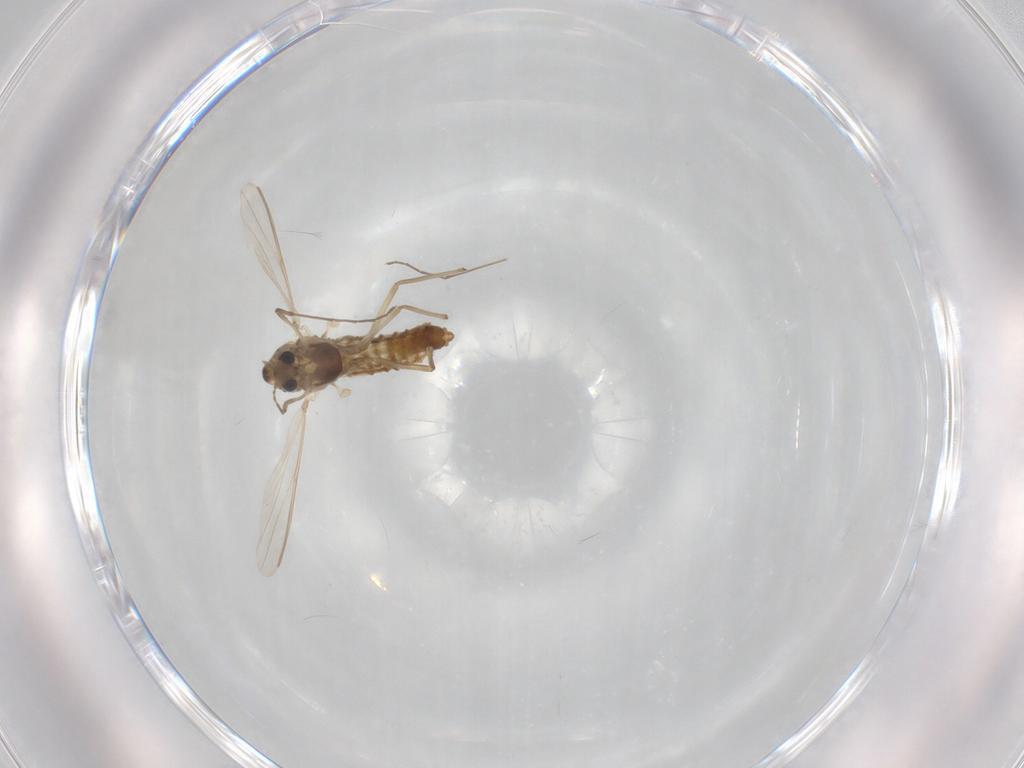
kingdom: Animalia
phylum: Arthropoda
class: Insecta
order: Diptera
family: Chironomidae
